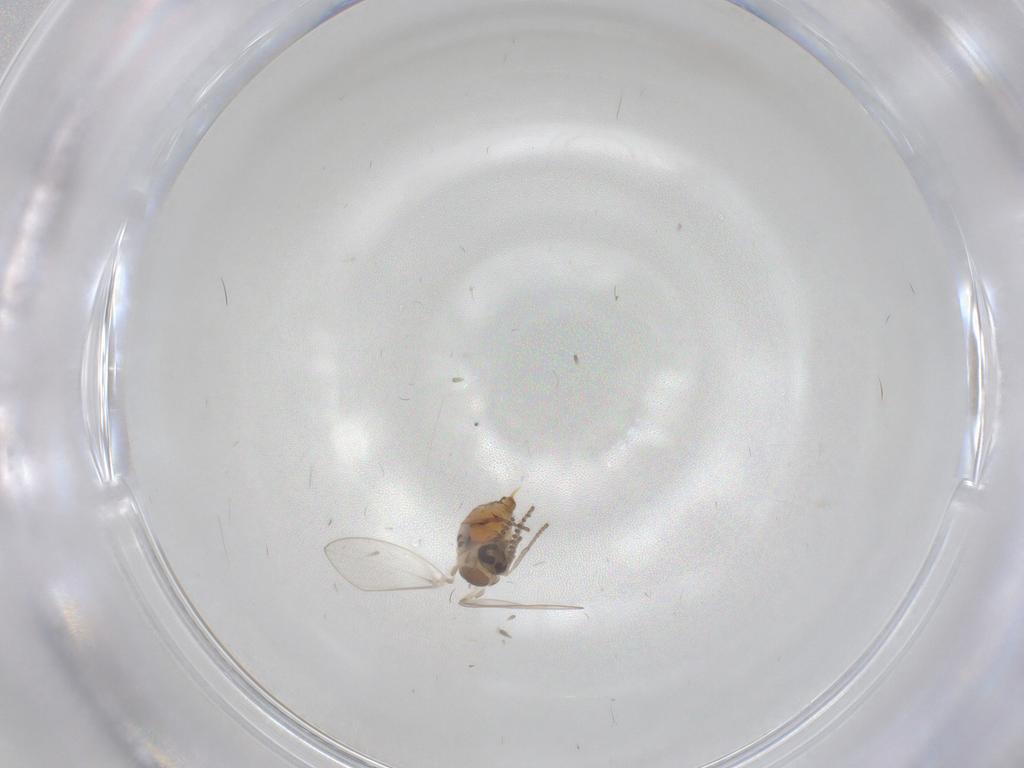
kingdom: Animalia
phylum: Arthropoda
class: Insecta
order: Diptera
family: Psychodidae
